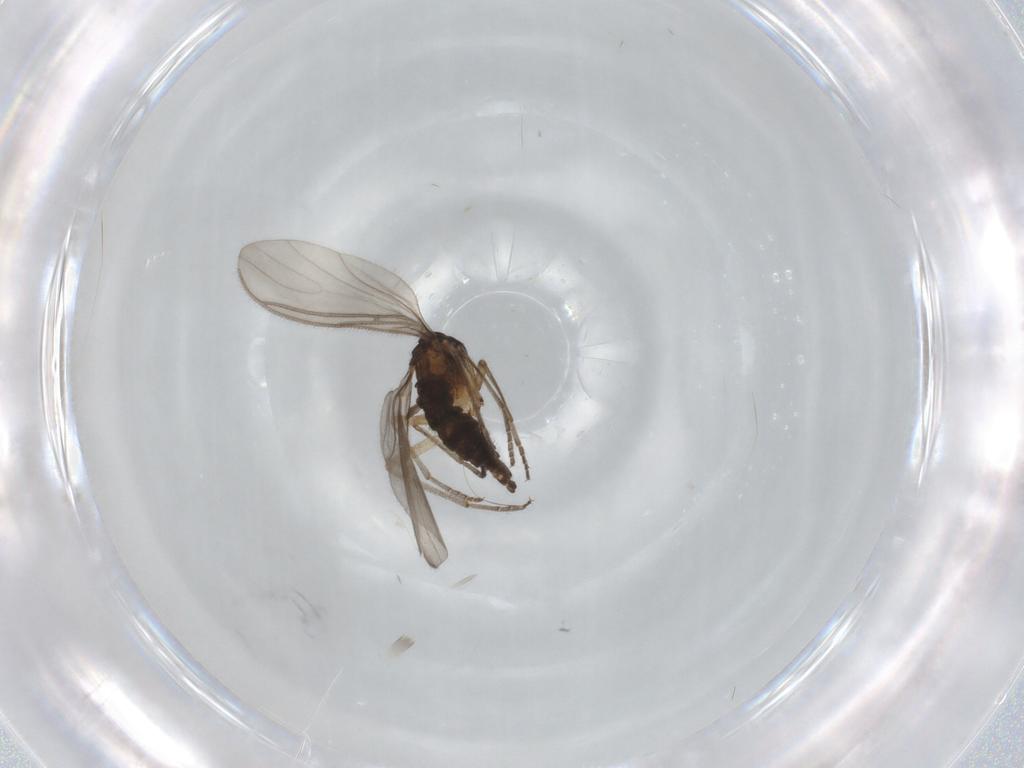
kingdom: Animalia
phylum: Arthropoda
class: Insecta
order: Diptera
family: Sciaridae
